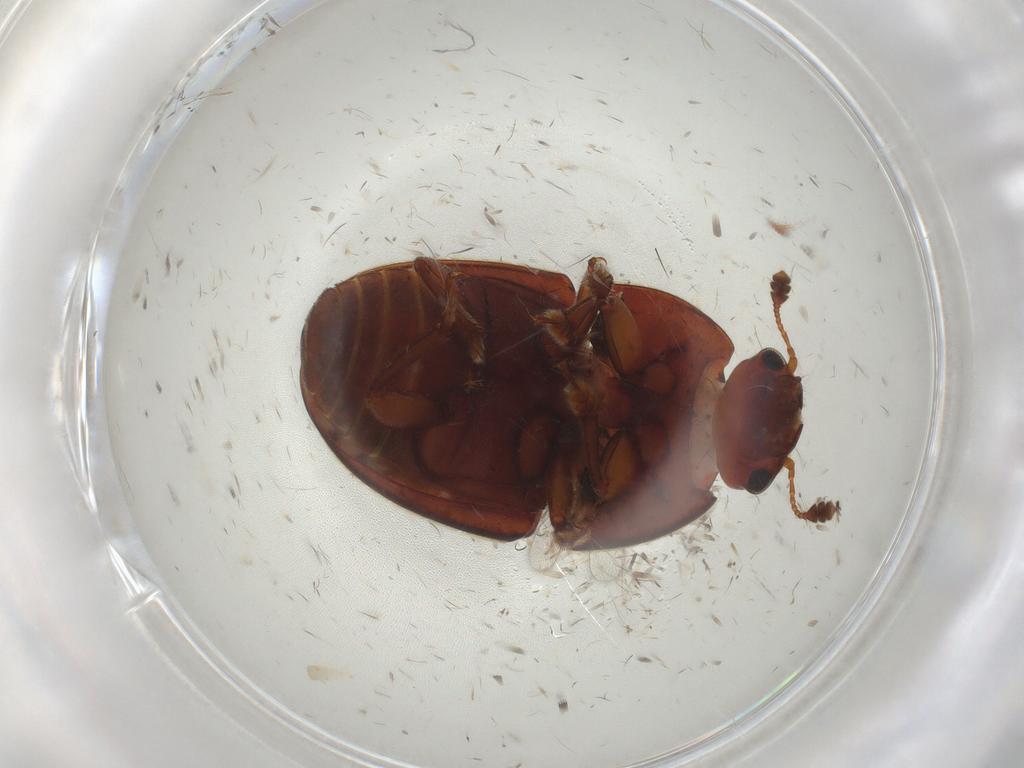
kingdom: Animalia
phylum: Arthropoda
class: Insecta
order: Coleoptera
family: Nitidulidae
